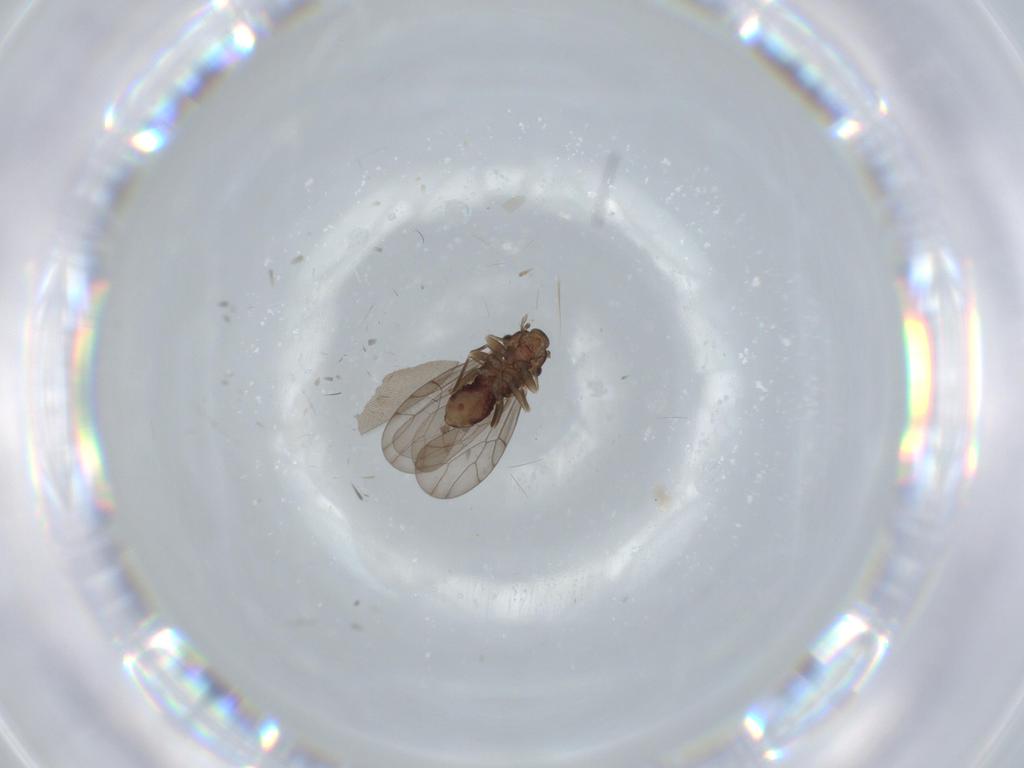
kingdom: Animalia
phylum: Arthropoda
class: Insecta
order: Psocodea
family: Lepidopsocidae
